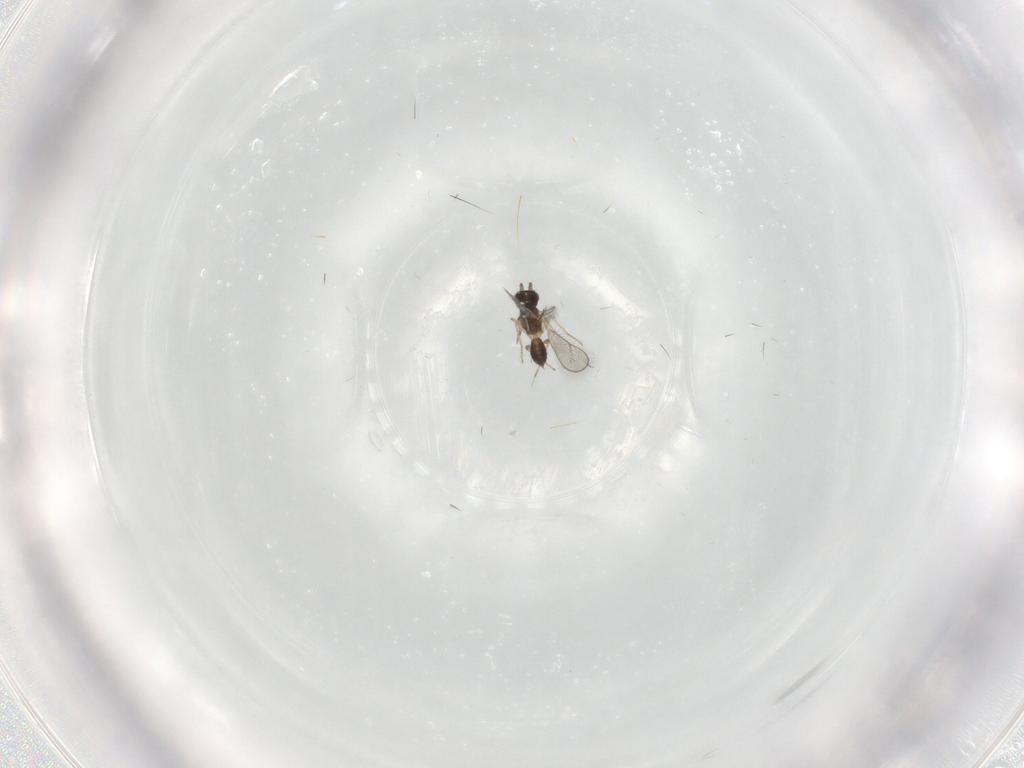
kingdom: Animalia
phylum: Arthropoda
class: Insecta
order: Hymenoptera
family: Eulophidae
